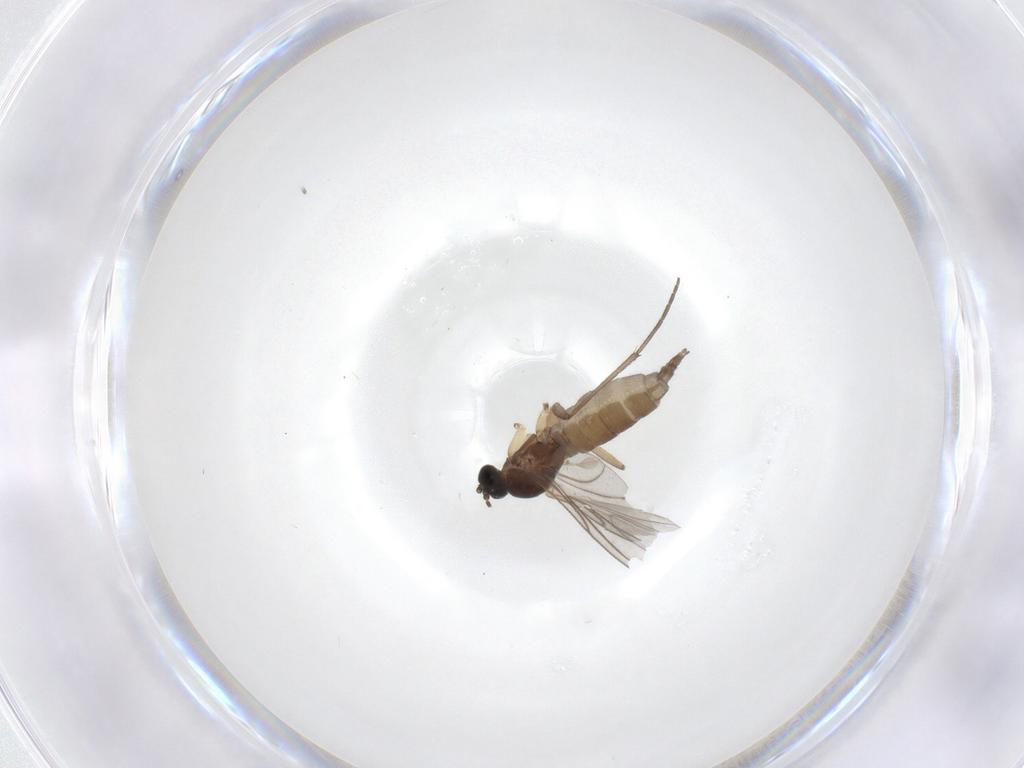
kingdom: Animalia
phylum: Arthropoda
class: Insecta
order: Diptera
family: Sciaridae
